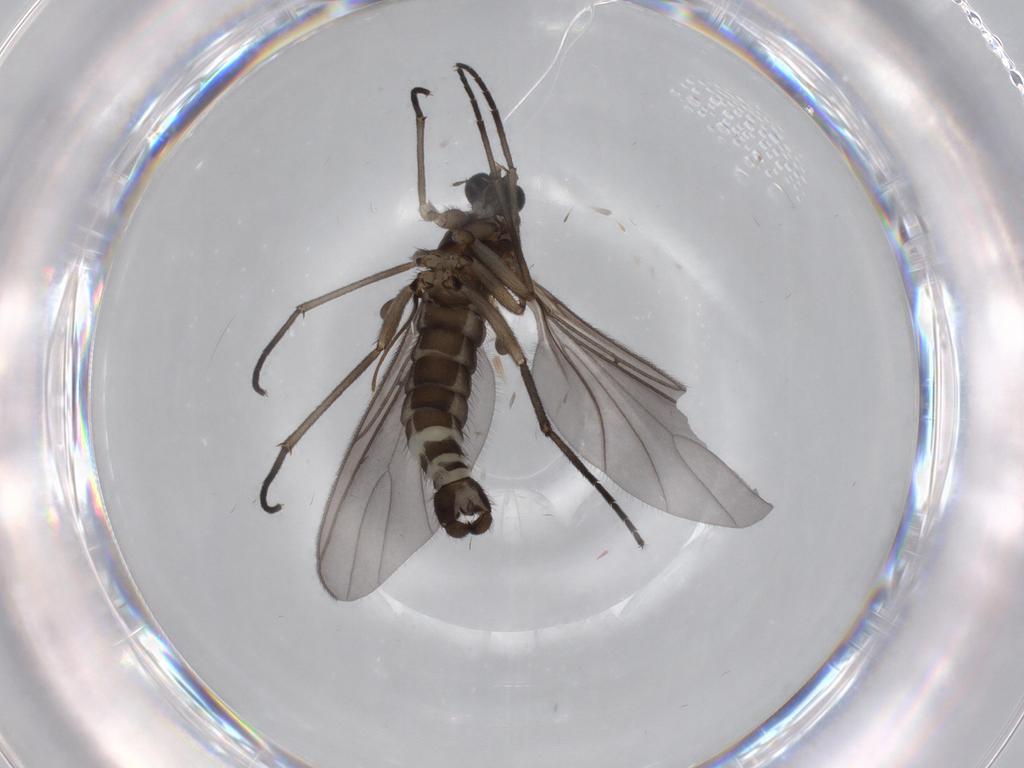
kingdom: Animalia
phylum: Arthropoda
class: Insecta
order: Diptera
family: Sciaridae
